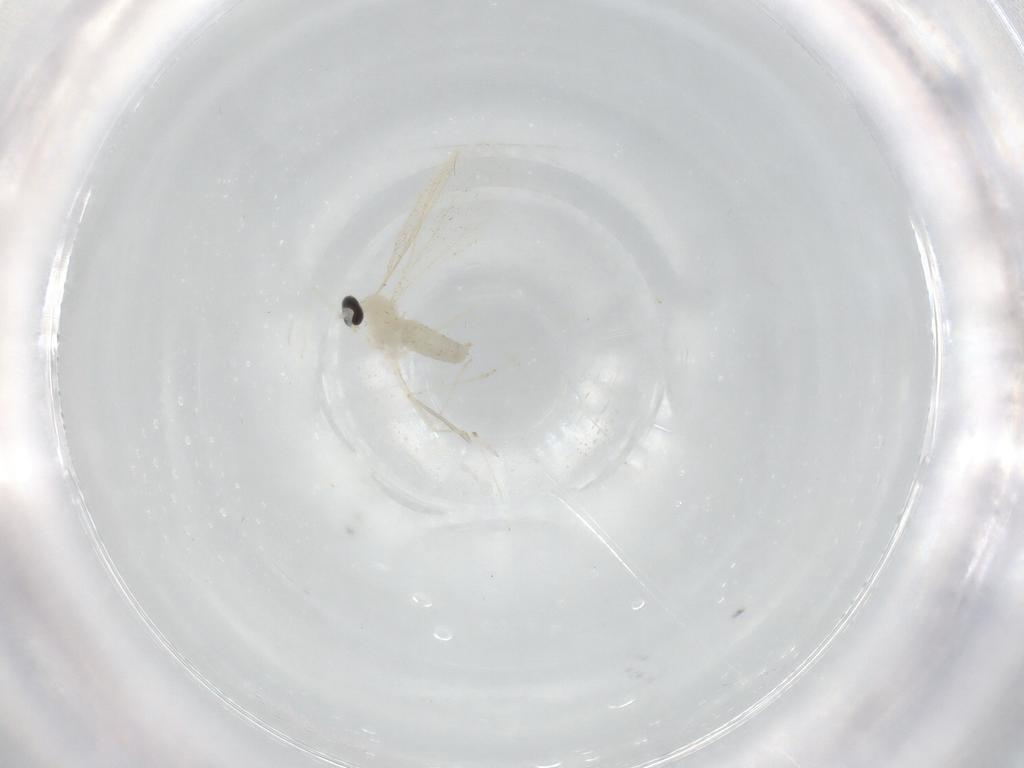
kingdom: Animalia
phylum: Arthropoda
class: Insecta
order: Diptera
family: Cecidomyiidae
